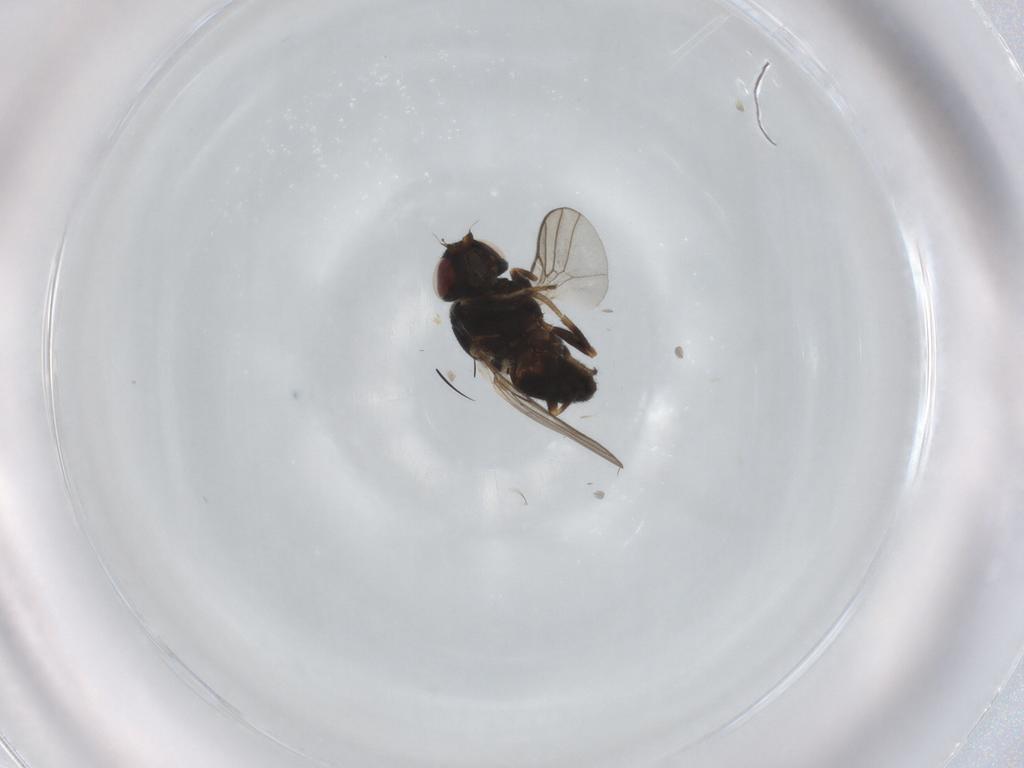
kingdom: Animalia
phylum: Arthropoda
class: Insecta
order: Diptera
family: Chloropidae
